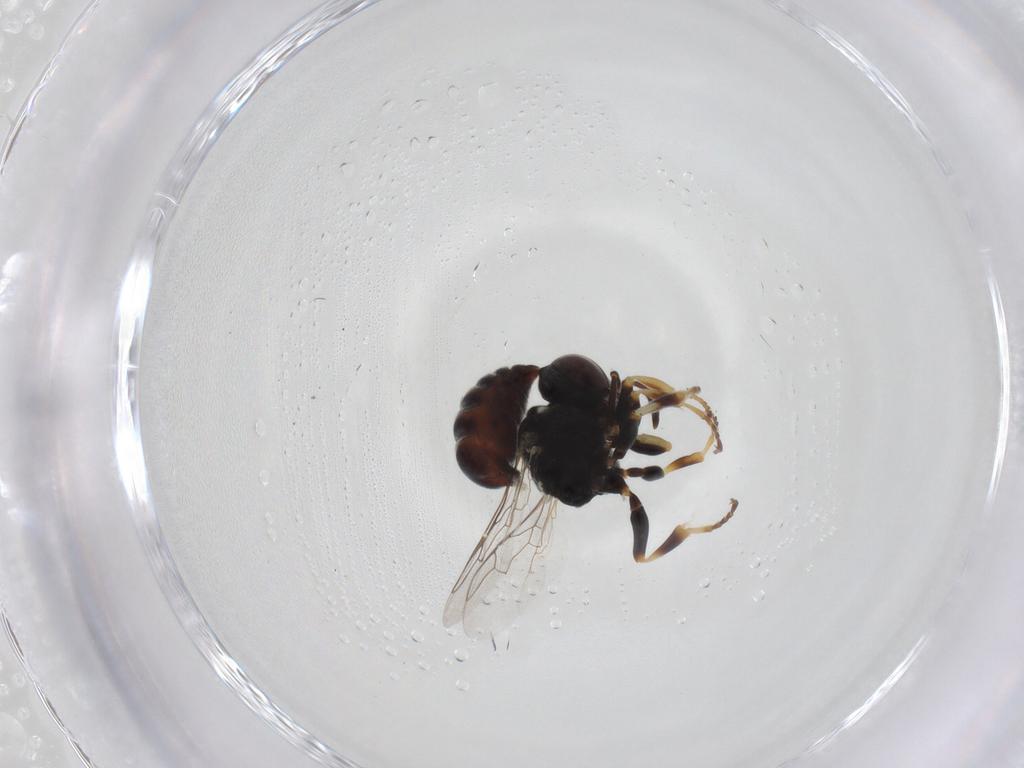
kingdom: Animalia
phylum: Arthropoda
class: Insecta
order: Hymenoptera
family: Crabronidae
